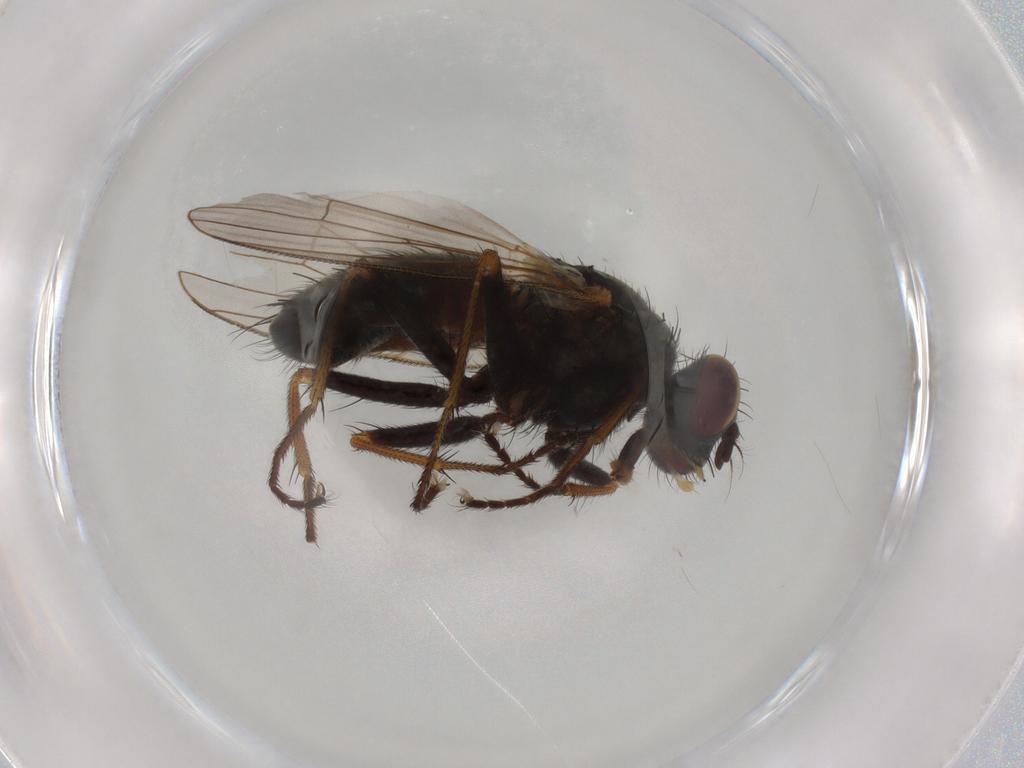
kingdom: Animalia
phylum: Arthropoda
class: Insecta
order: Diptera
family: Muscidae
